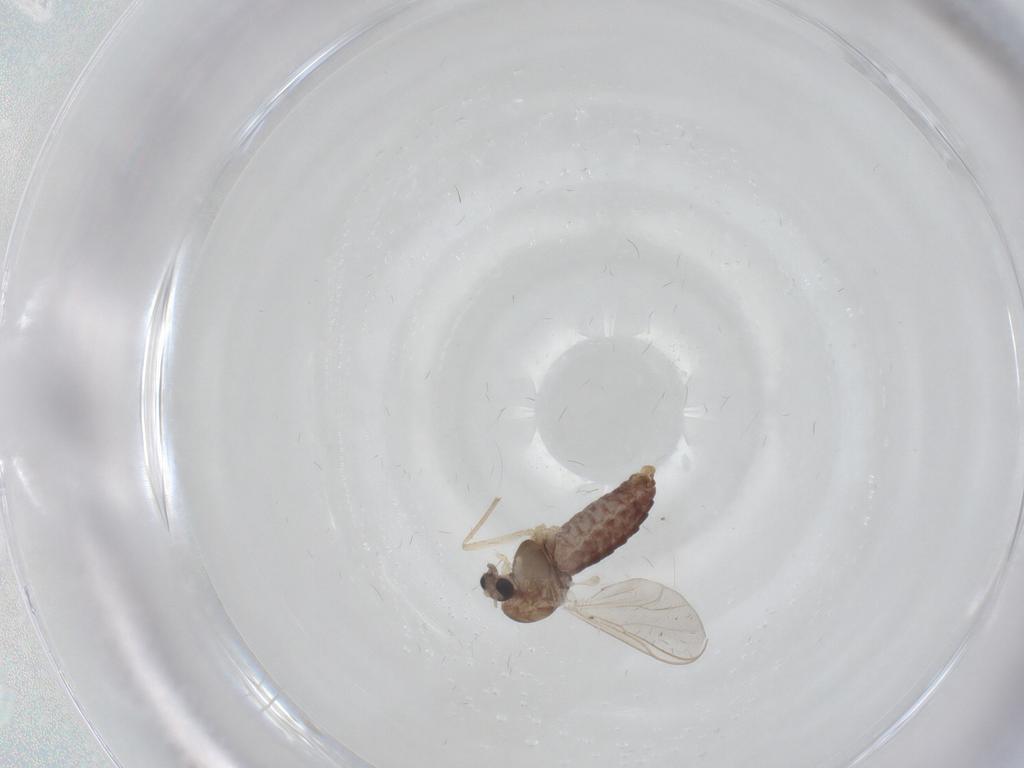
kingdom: Animalia
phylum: Arthropoda
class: Insecta
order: Diptera
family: Chironomidae
